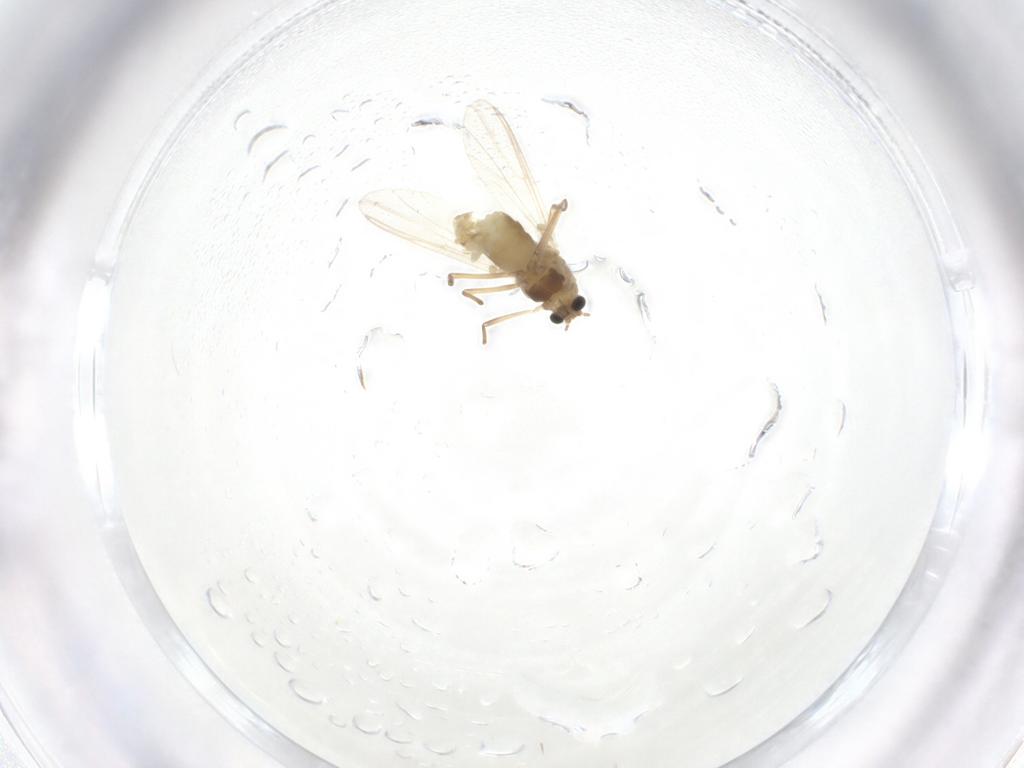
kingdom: Animalia
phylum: Arthropoda
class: Insecta
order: Diptera
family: Chironomidae
